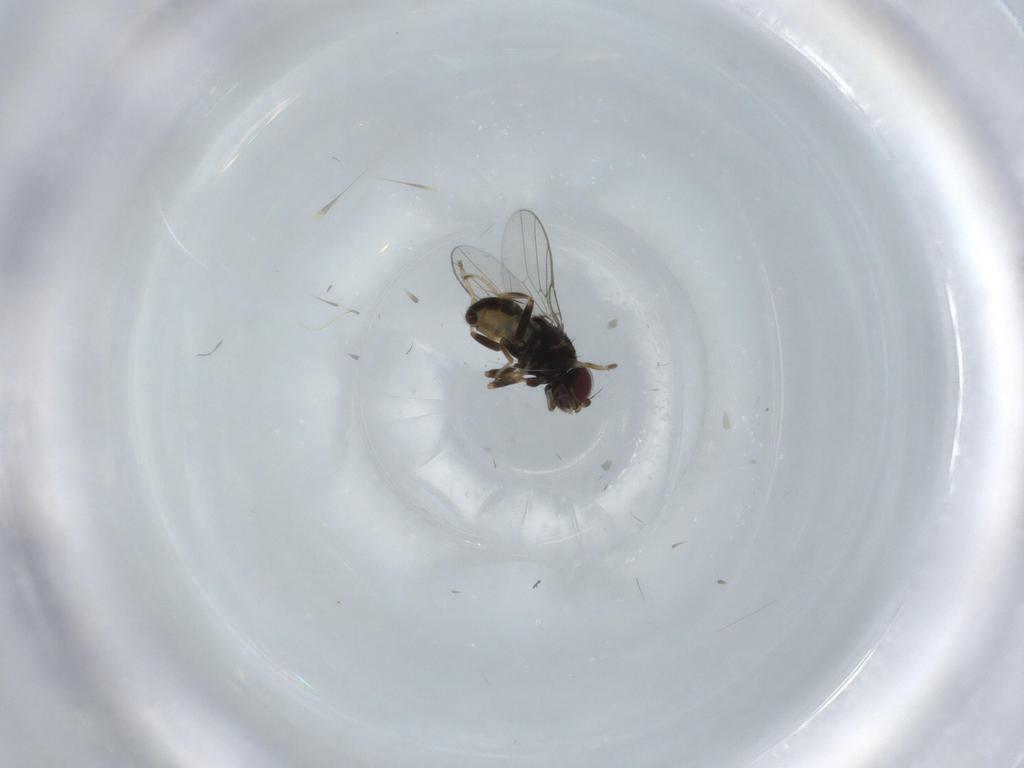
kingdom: Animalia
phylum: Arthropoda
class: Insecta
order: Diptera
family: Chloropidae
